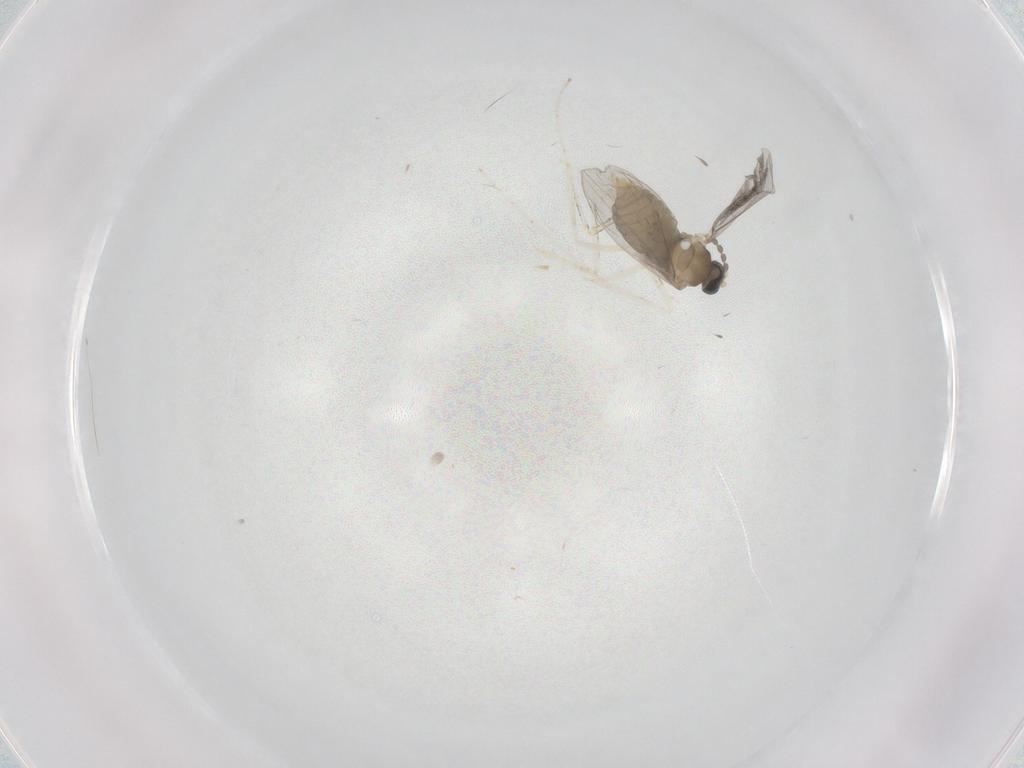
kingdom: Animalia
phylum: Arthropoda
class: Insecta
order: Diptera
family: Cecidomyiidae
